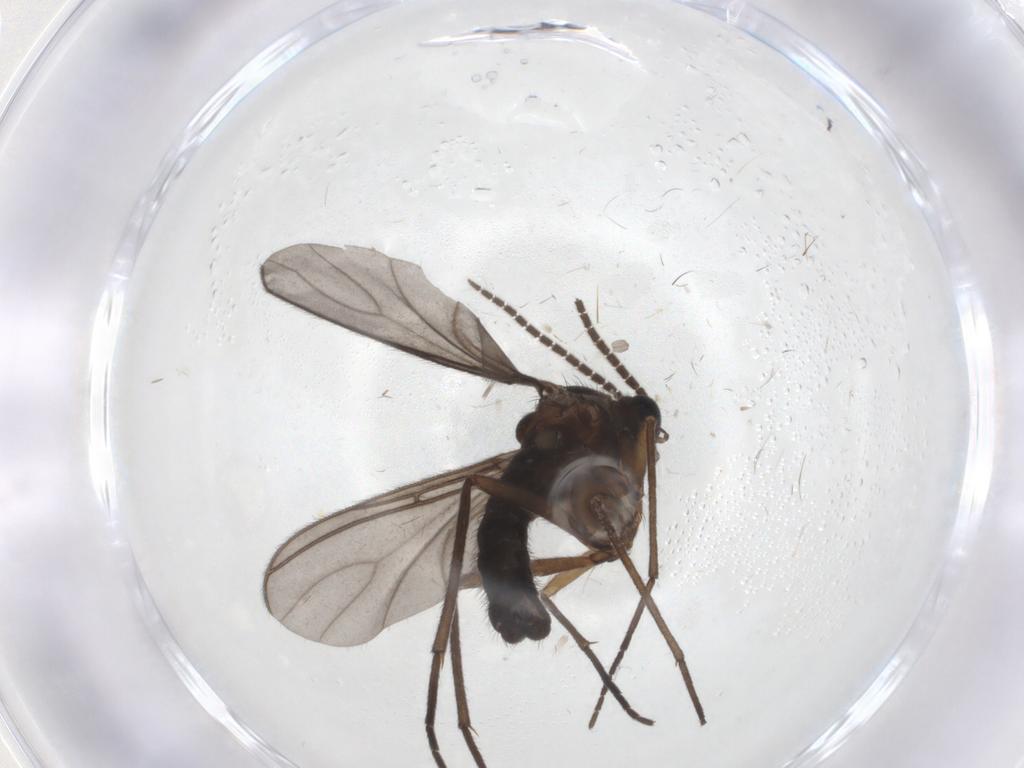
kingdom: Animalia
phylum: Arthropoda
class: Insecta
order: Diptera
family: Sciaridae
